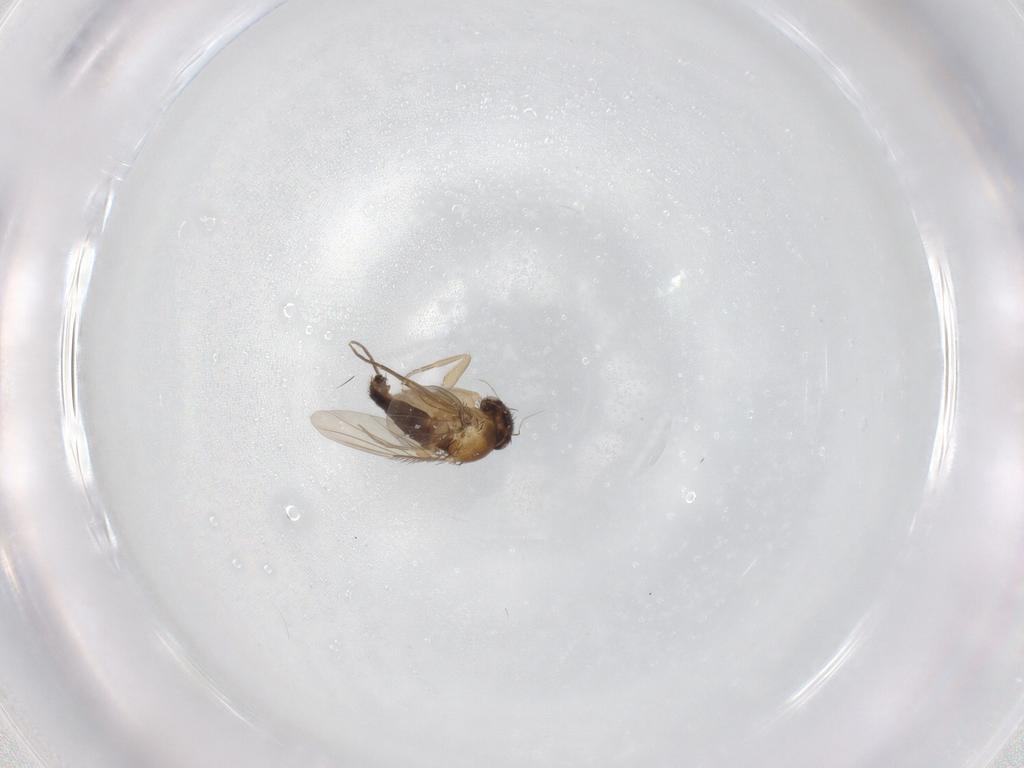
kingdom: Animalia
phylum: Arthropoda
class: Insecta
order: Diptera
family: Phoridae
